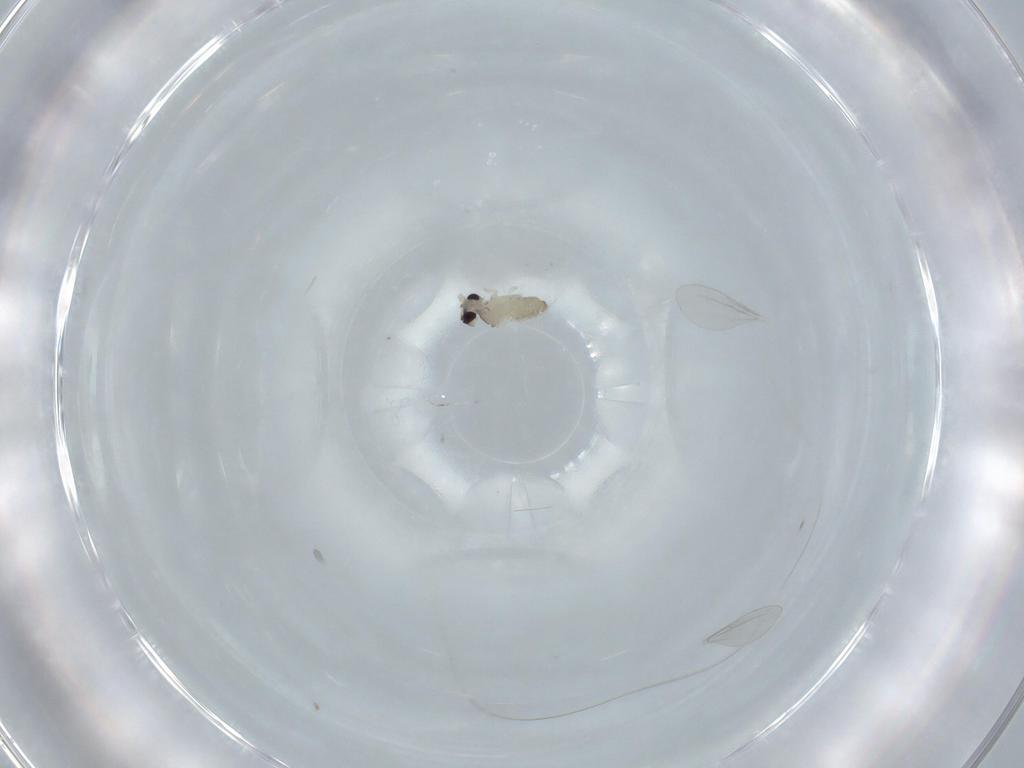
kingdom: Animalia
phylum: Arthropoda
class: Insecta
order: Diptera
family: Cecidomyiidae
